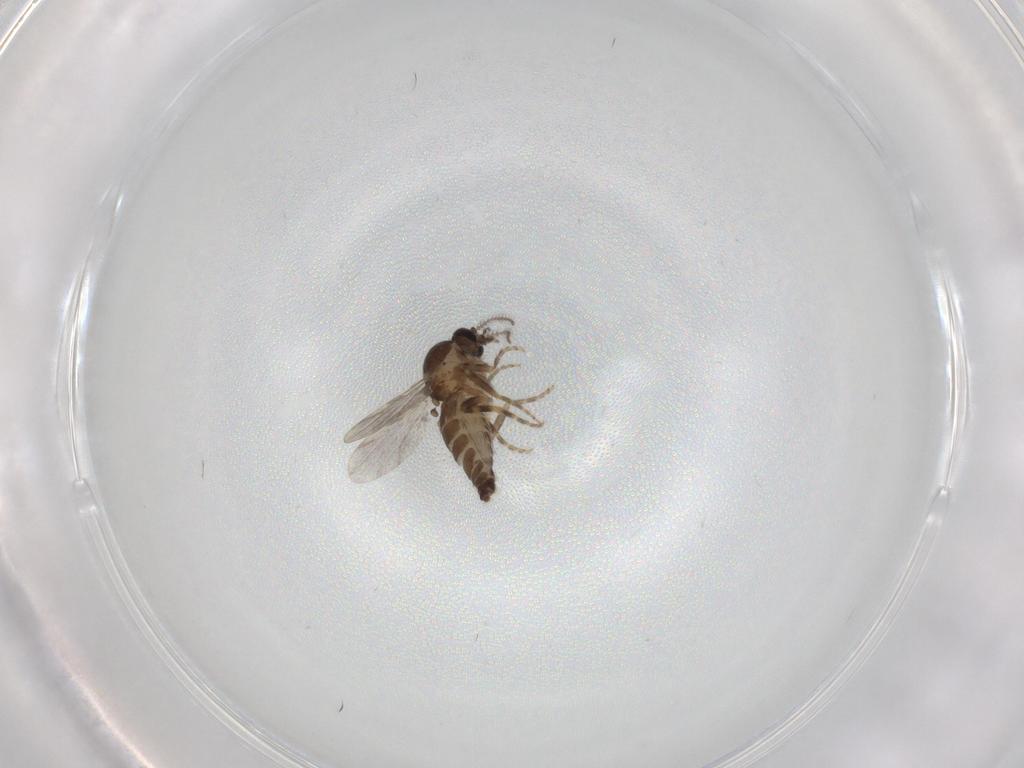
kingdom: Animalia
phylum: Arthropoda
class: Insecta
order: Diptera
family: Ceratopogonidae
